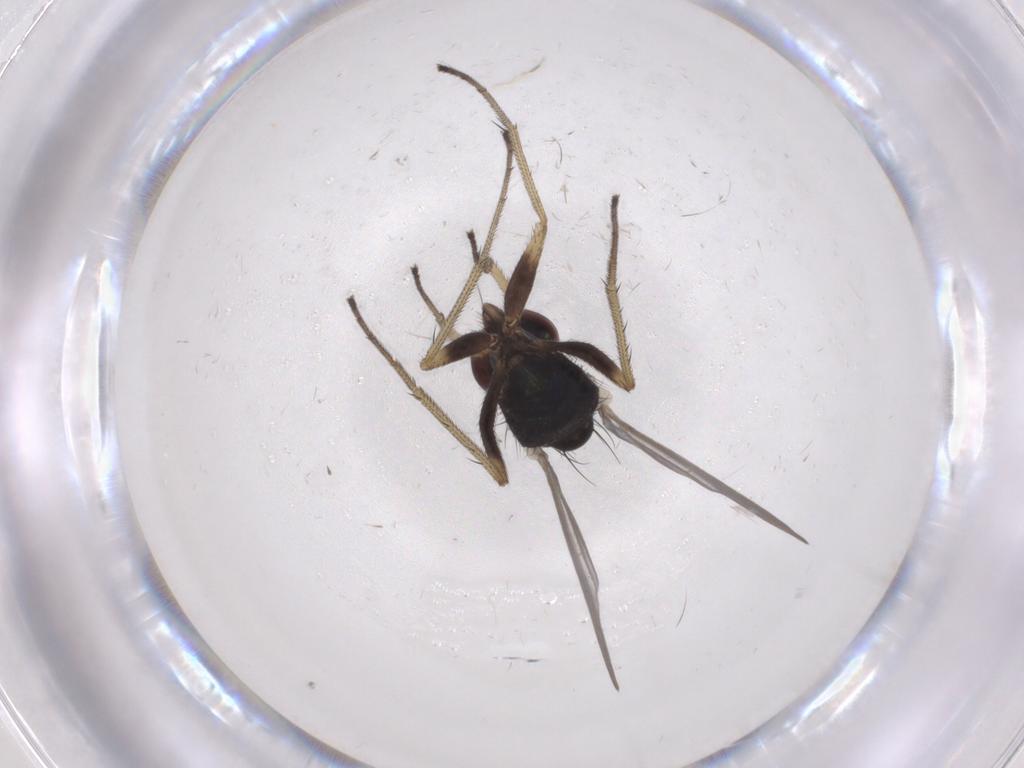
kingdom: Animalia
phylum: Arthropoda
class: Insecta
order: Diptera
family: Dolichopodidae
